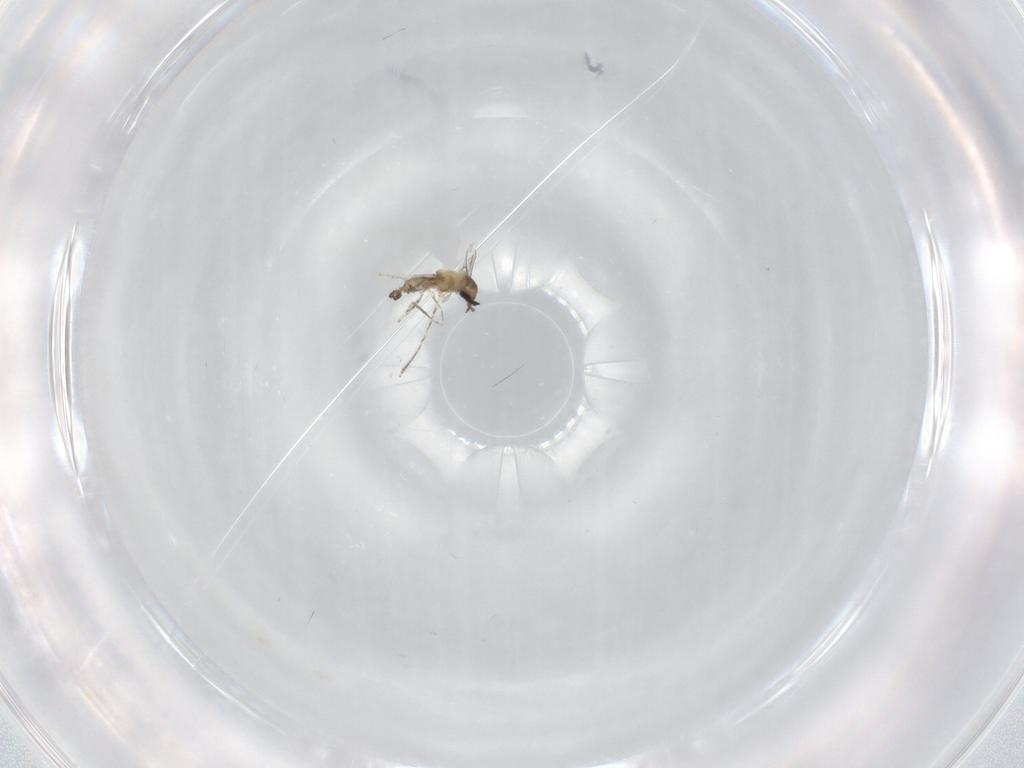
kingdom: Animalia
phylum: Arthropoda
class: Insecta
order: Diptera
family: Cecidomyiidae
